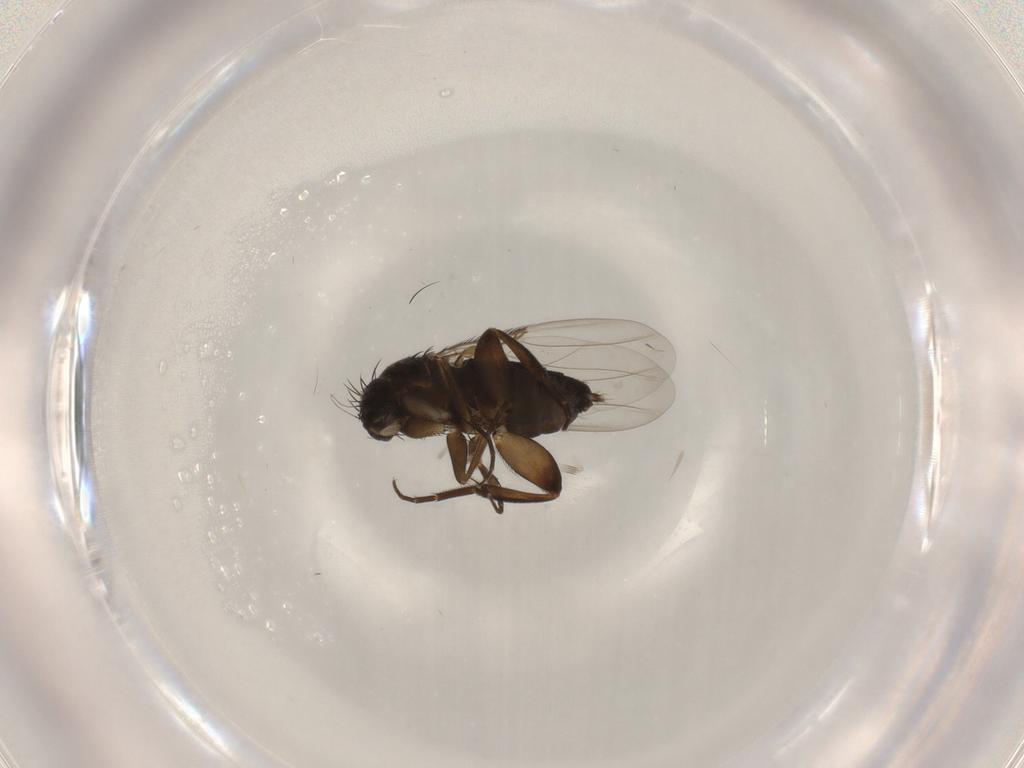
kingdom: Animalia
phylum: Arthropoda
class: Insecta
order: Diptera
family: Phoridae
